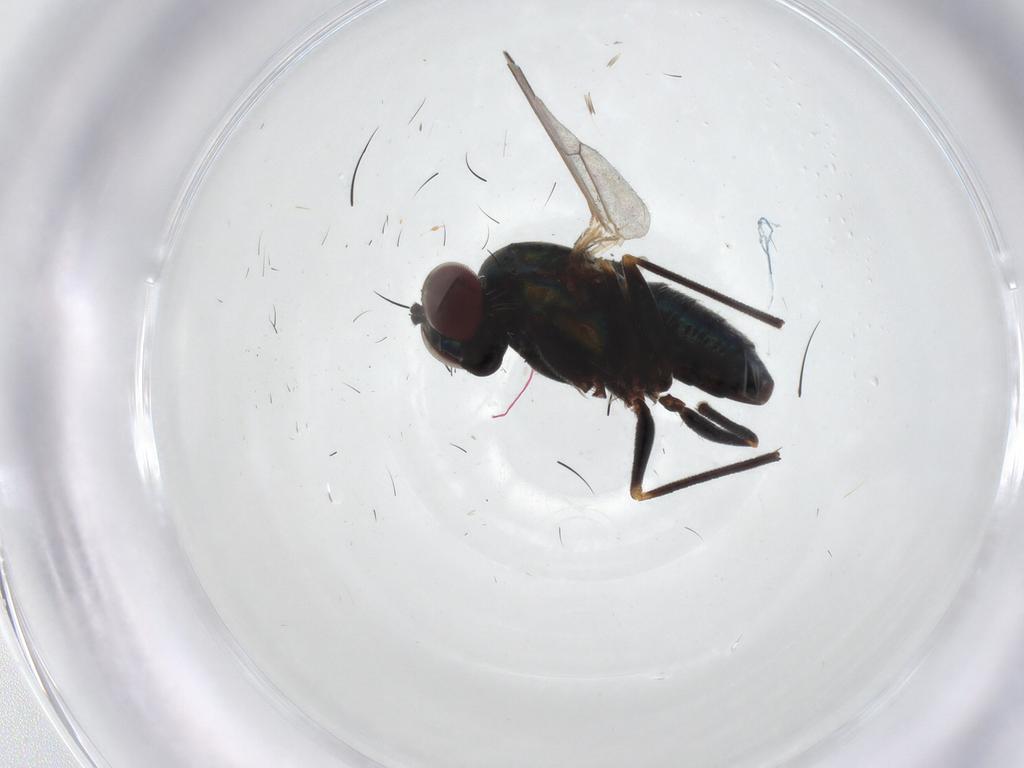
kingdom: Animalia
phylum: Arthropoda
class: Insecta
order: Diptera
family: Dolichopodidae
